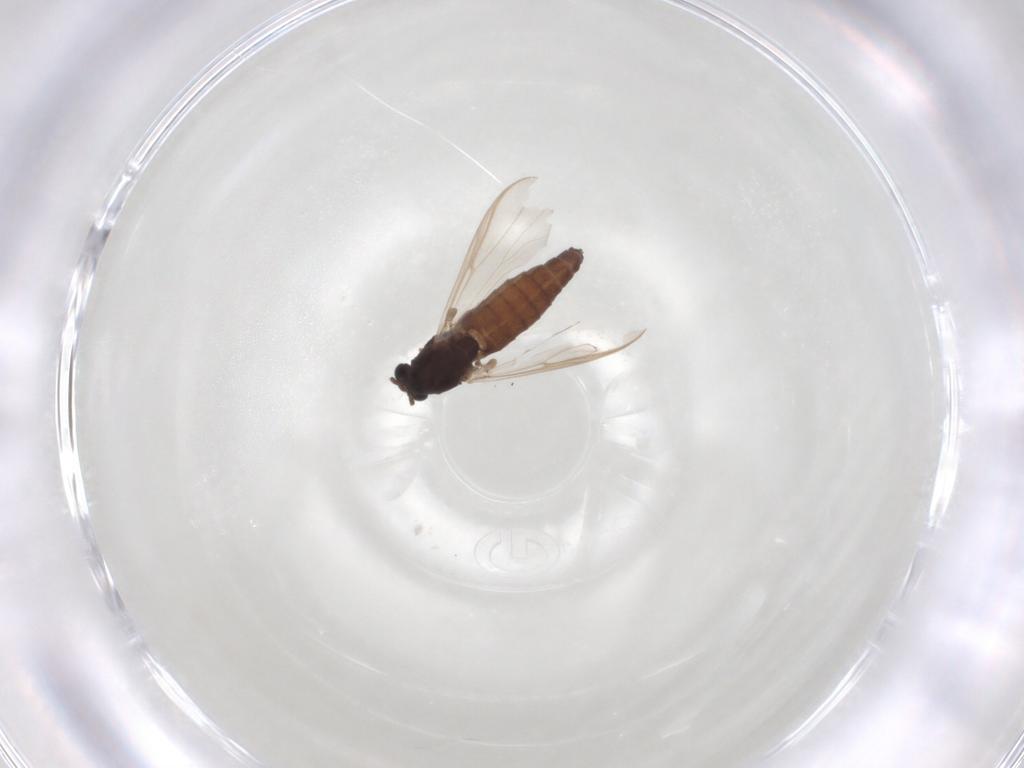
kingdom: Animalia
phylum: Arthropoda
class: Insecta
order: Diptera
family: Chironomidae
